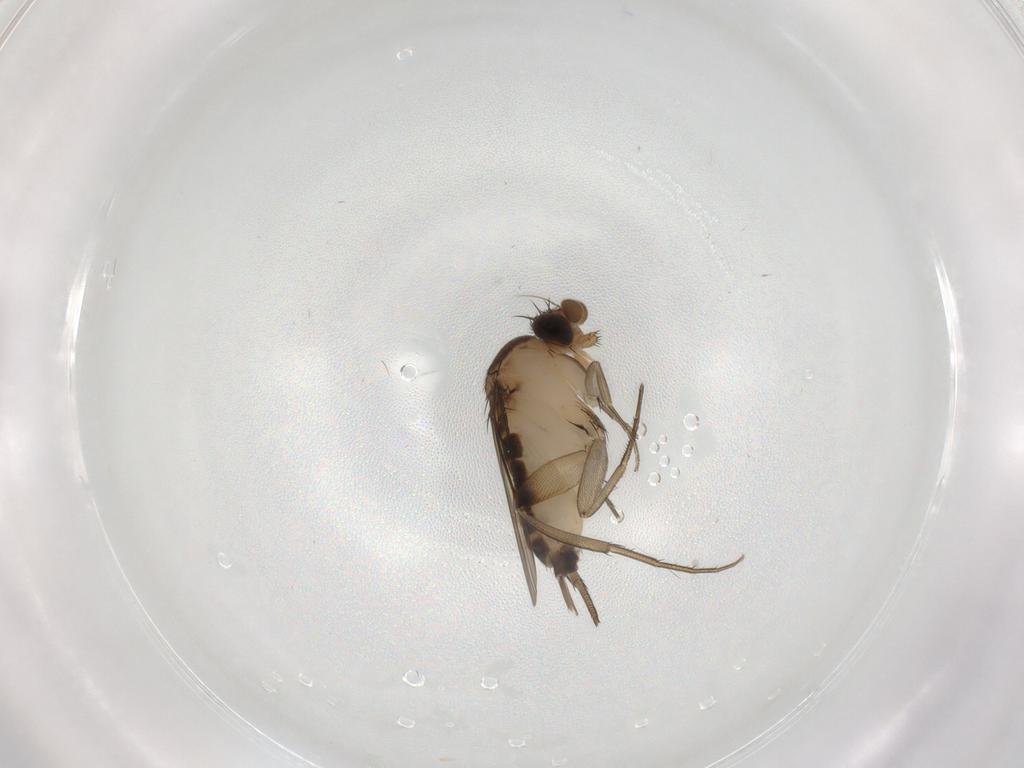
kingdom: Animalia
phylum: Arthropoda
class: Insecta
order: Diptera
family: Phoridae
